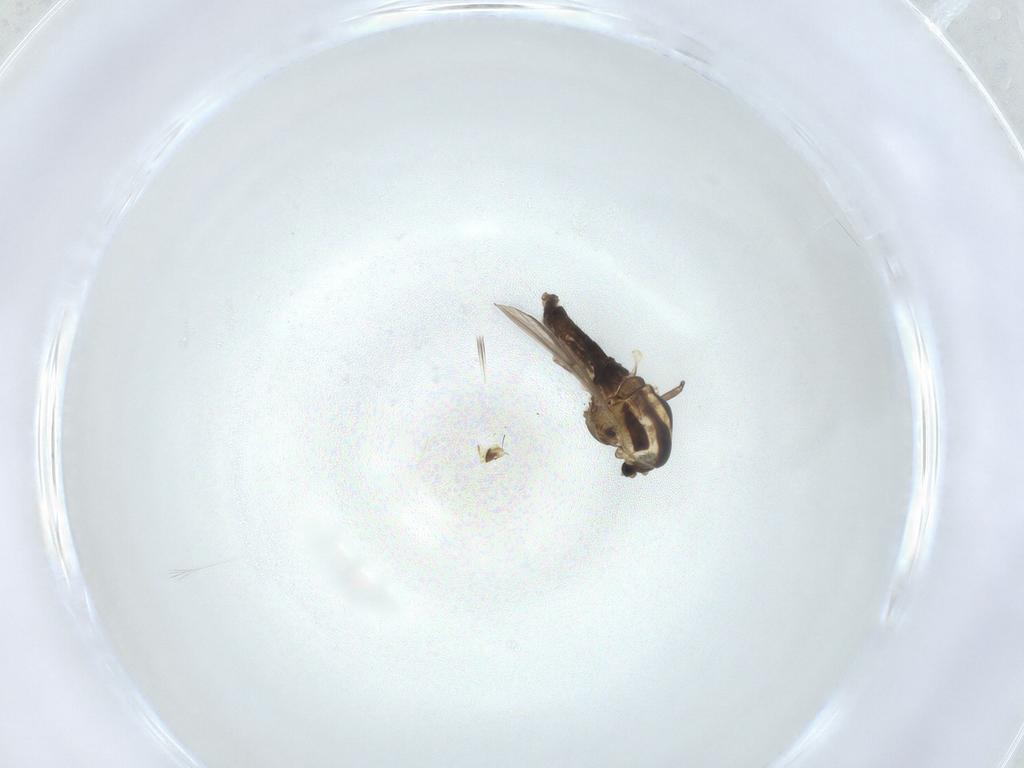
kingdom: Animalia
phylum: Arthropoda
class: Insecta
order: Diptera
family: Chironomidae
